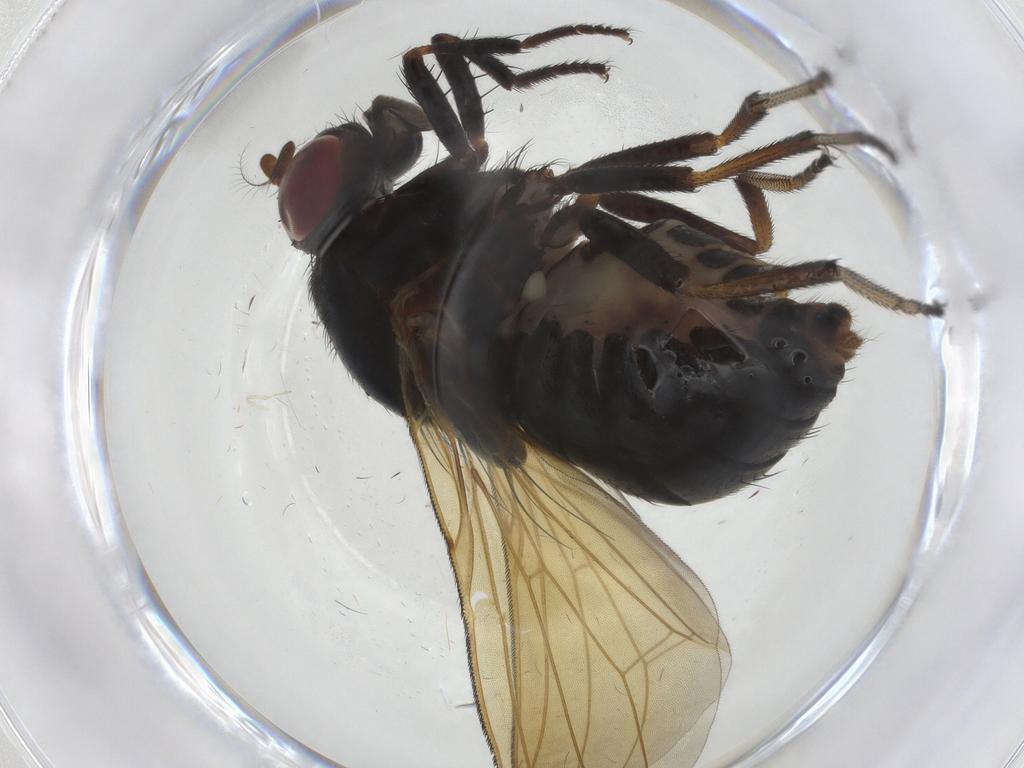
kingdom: Animalia
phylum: Arthropoda
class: Insecta
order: Diptera
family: Lauxaniidae
